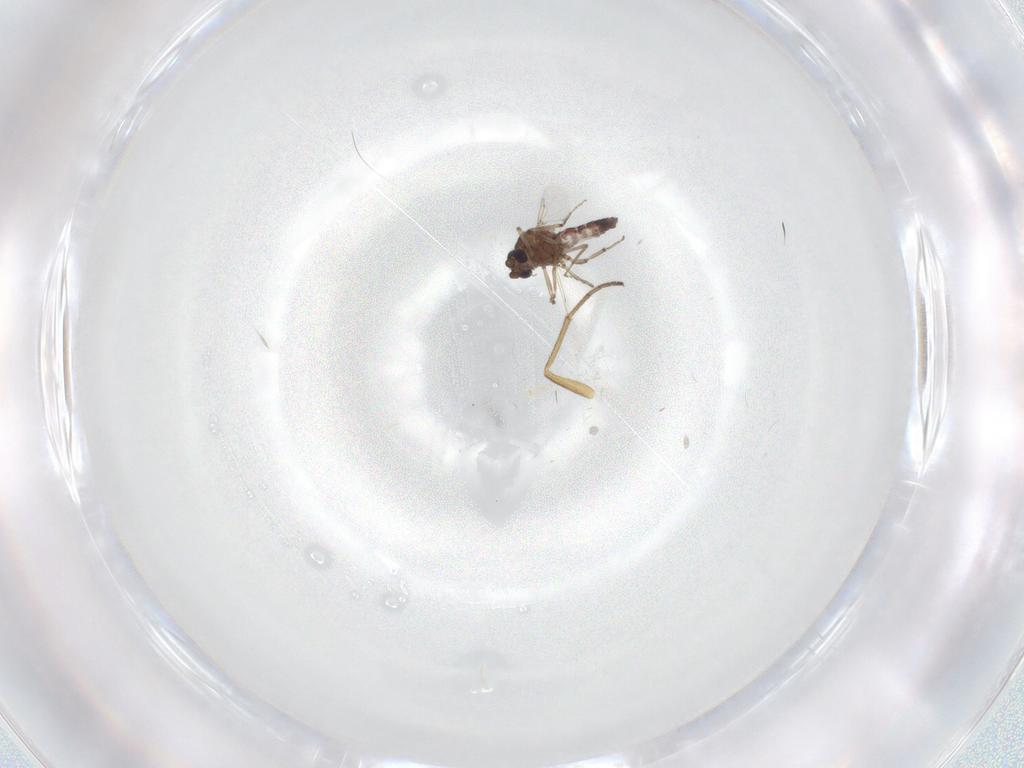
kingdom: Animalia
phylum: Arthropoda
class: Insecta
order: Diptera
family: Ceratopogonidae
